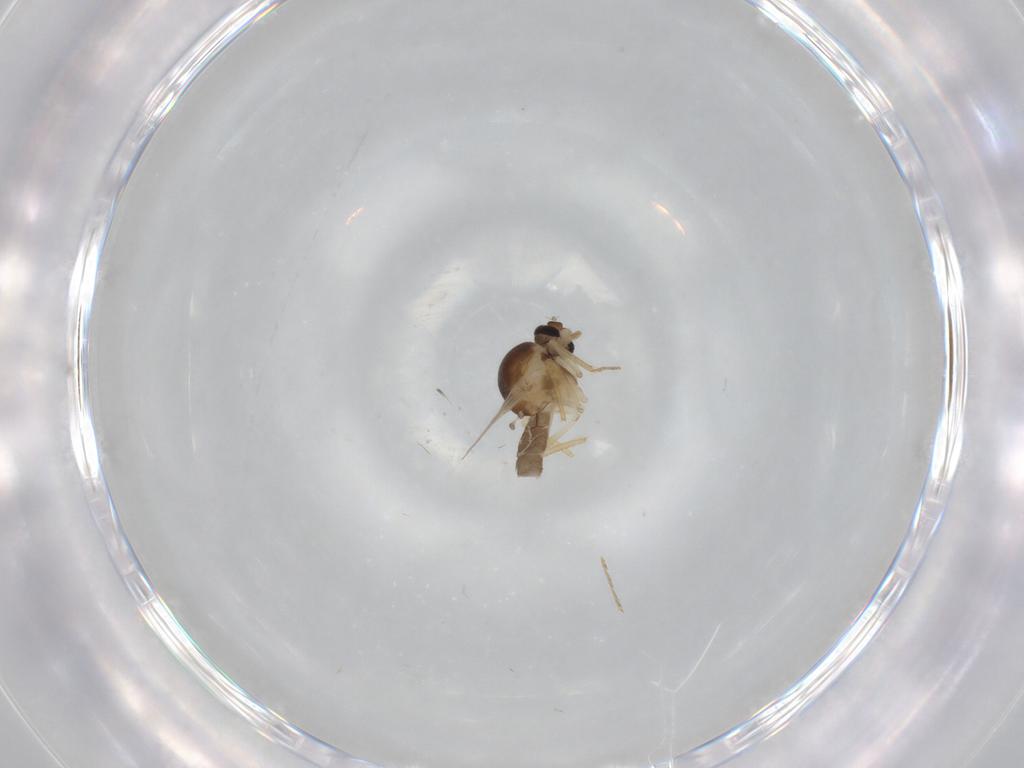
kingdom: Animalia
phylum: Arthropoda
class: Insecta
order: Diptera
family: Ceratopogonidae
